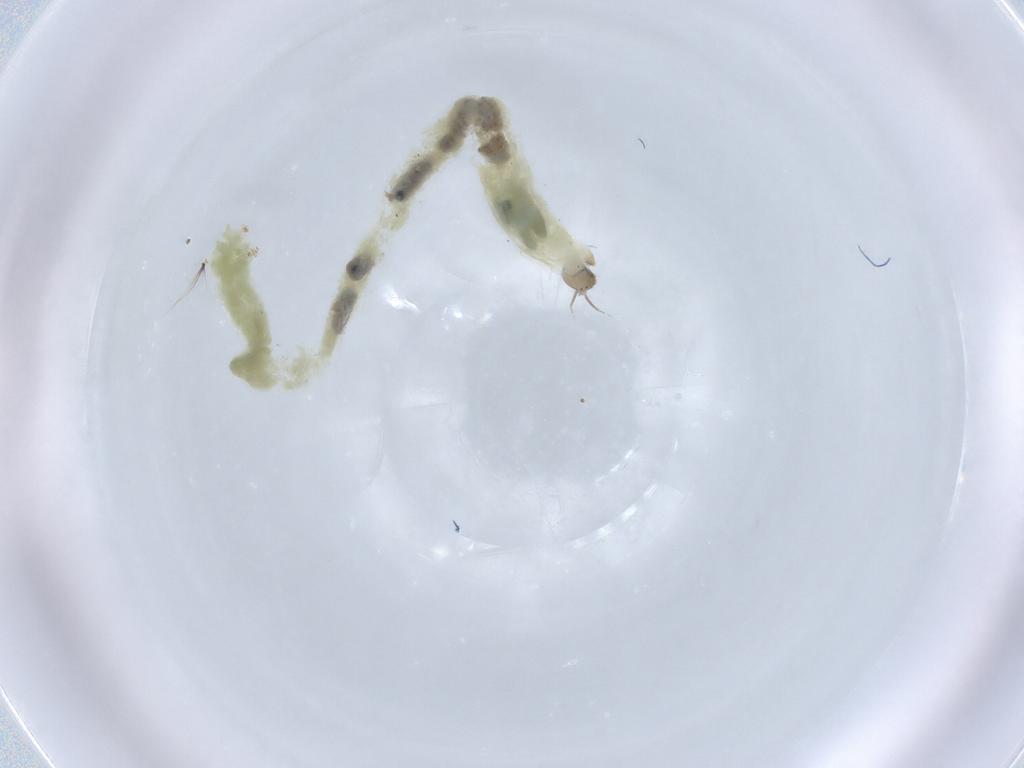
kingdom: Animalia
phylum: Arthropoda
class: Insecta
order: Diptera
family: Chironomidae
